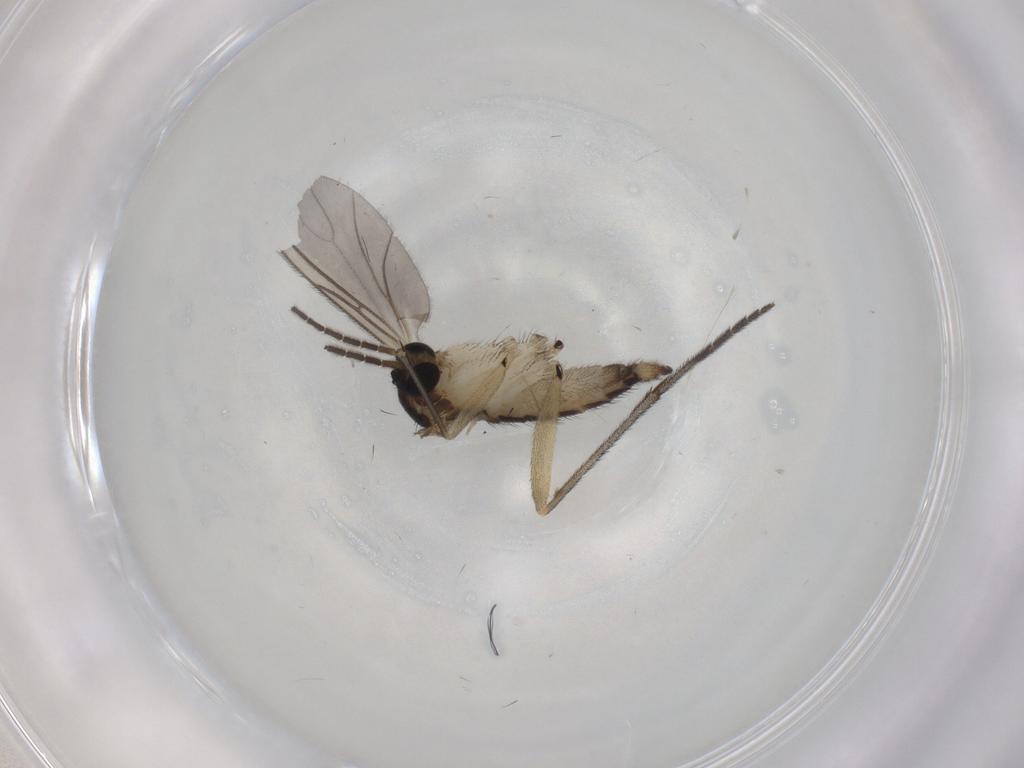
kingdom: Animalia
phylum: Arthropoda
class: Insecta
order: Diptera
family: Sciaridae
